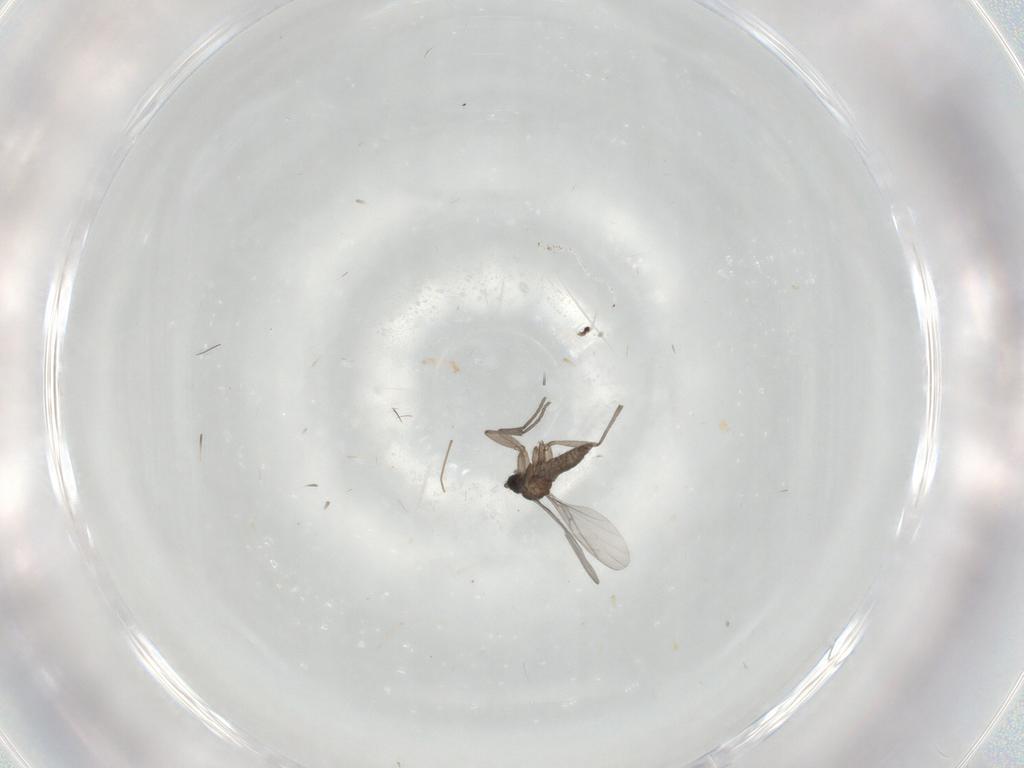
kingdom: Animalia
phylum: Arthropoda
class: Insecta
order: Diptera
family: Sciaridae
